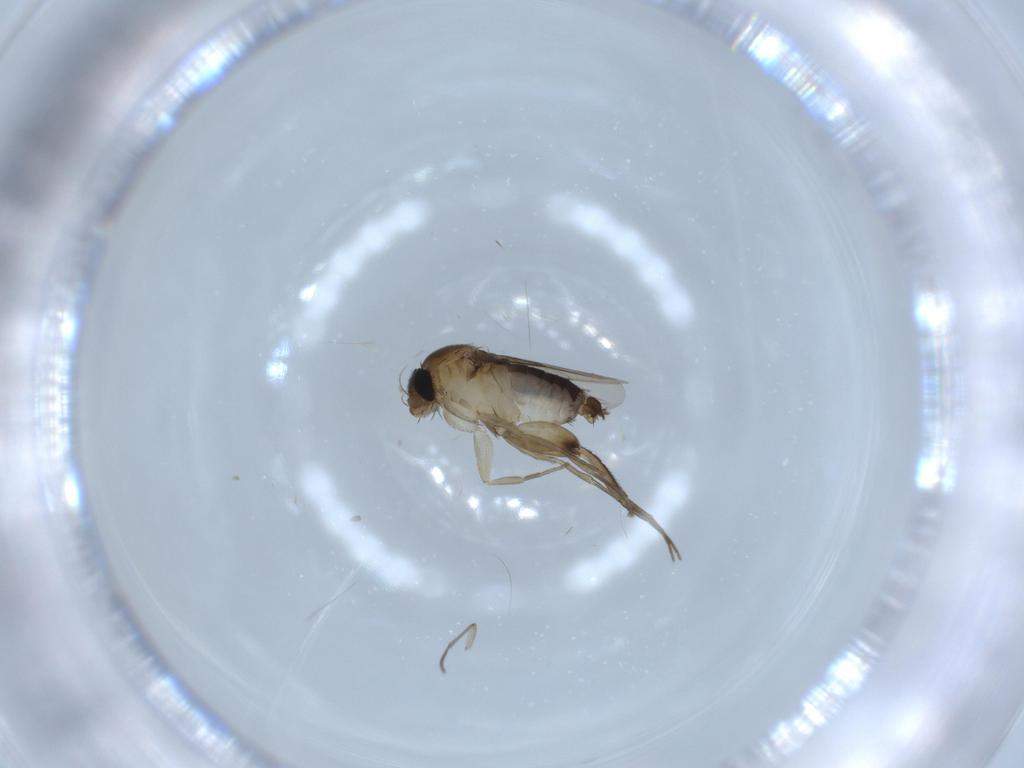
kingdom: Animalia
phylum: Arthropoda
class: Insecta
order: Diptera
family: Phoridae
